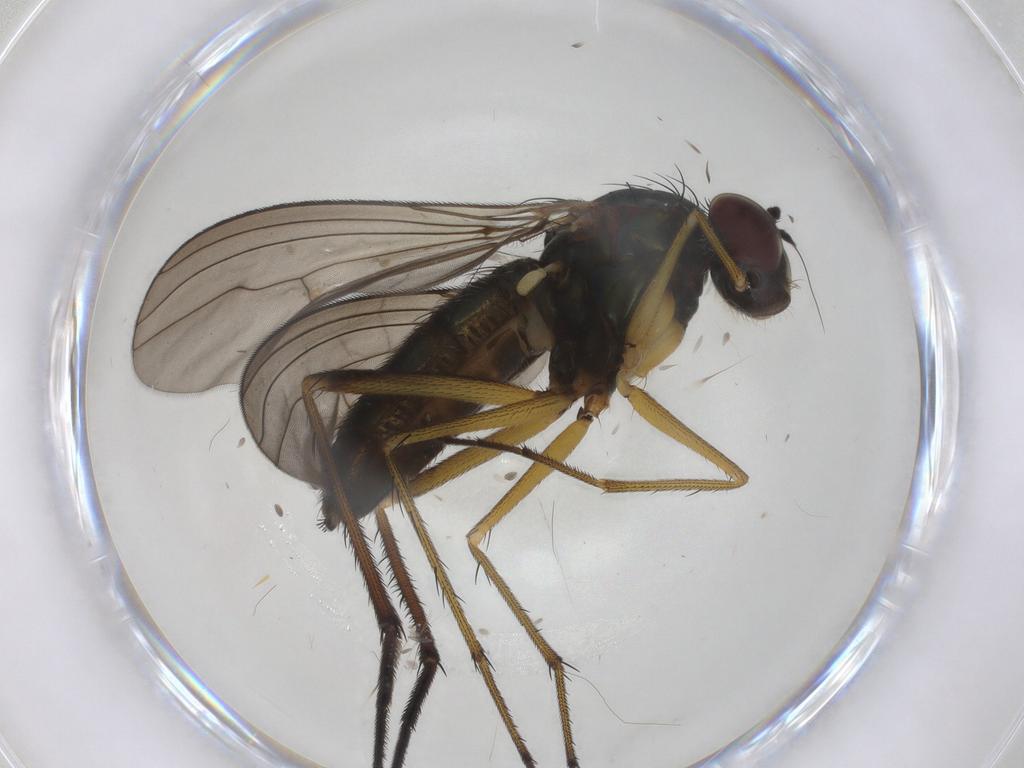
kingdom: Animalia
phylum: Arthropoda
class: Insecta
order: Diptera
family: Dolichopodidae
